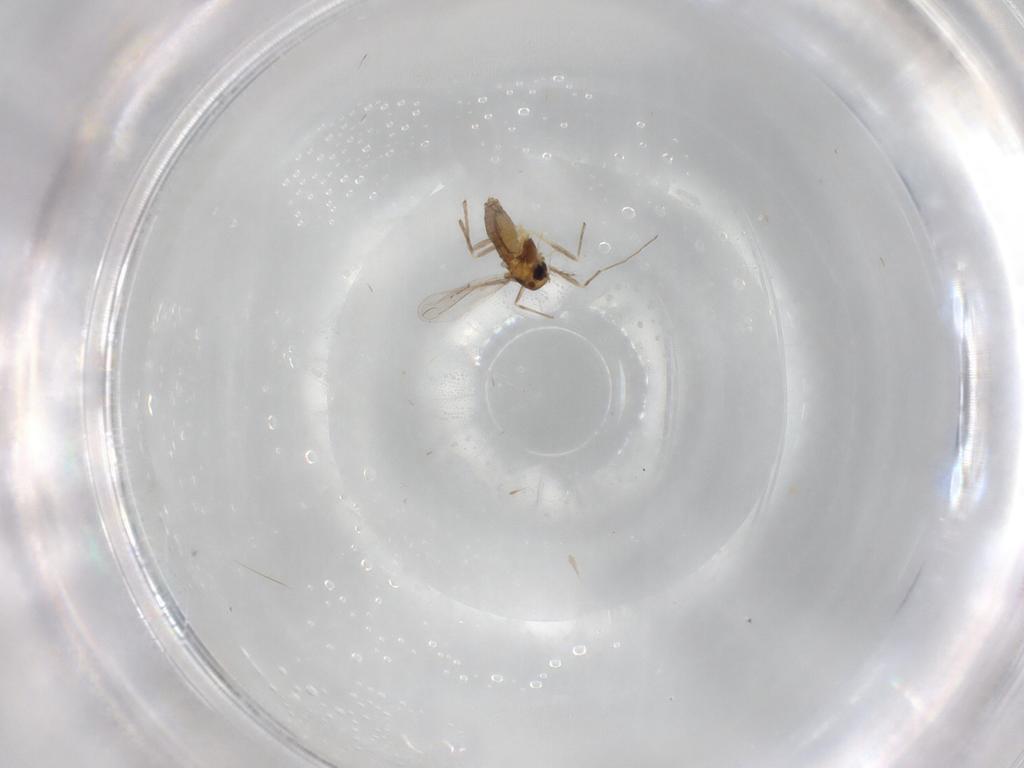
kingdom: Animalia
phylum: Arthropoda
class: Insecta
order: Diptera
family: Chironomidae
